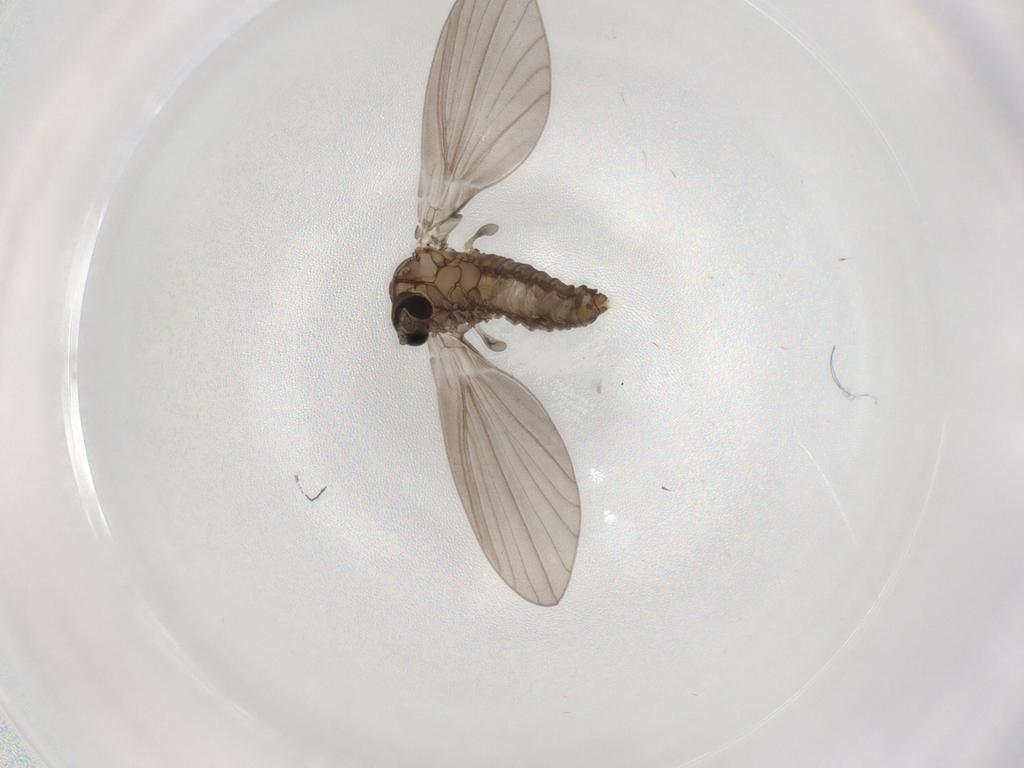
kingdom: Animalia
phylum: Arthropoda
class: Insecta
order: Diptera
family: Psychodidae
